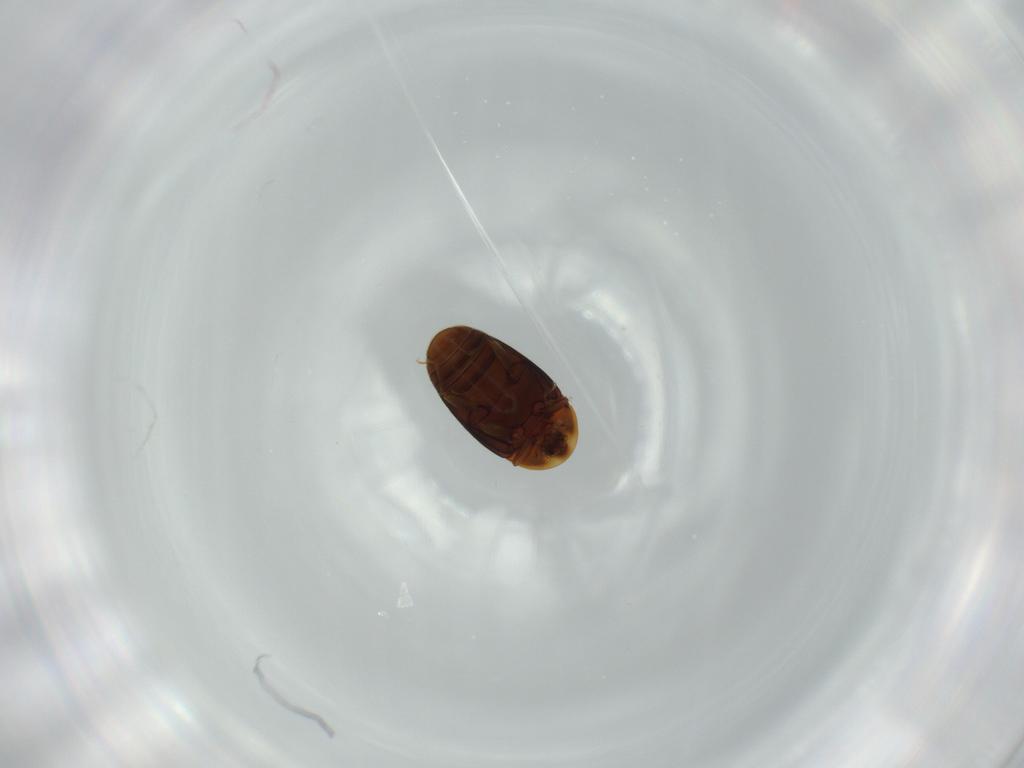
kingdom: Animalia
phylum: Arthropoda
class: Insecta
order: Coleoptera
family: Corylophidae
